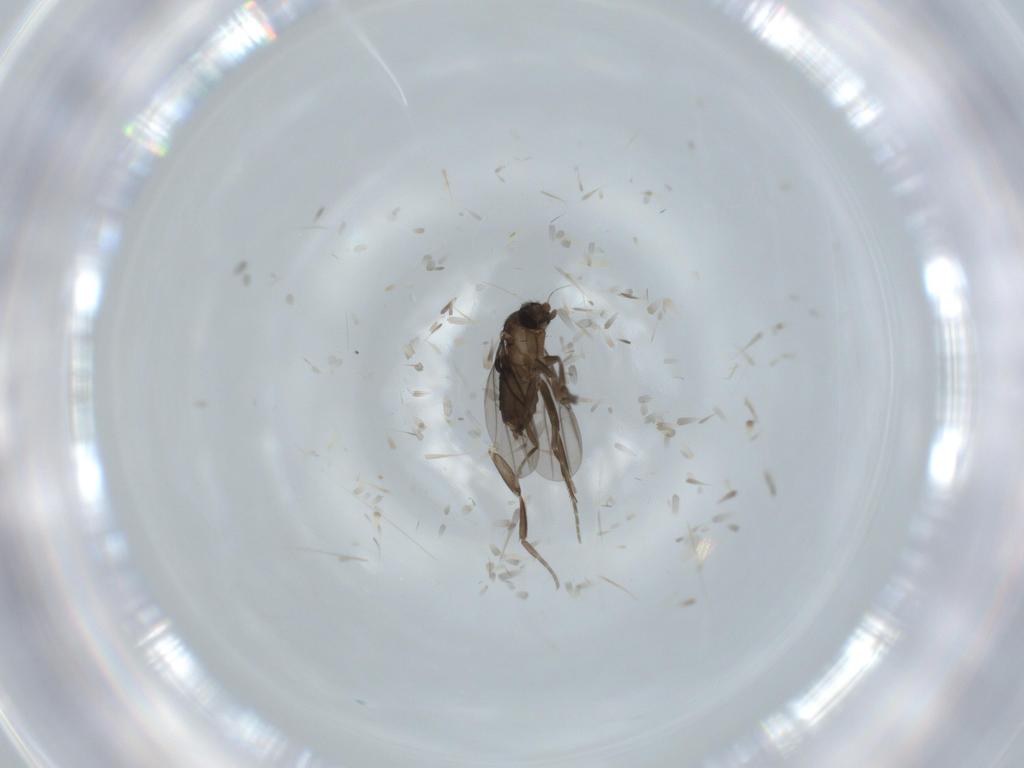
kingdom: Animalia
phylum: Arthropoda
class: Insecta
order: Diptera
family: Phoridae
